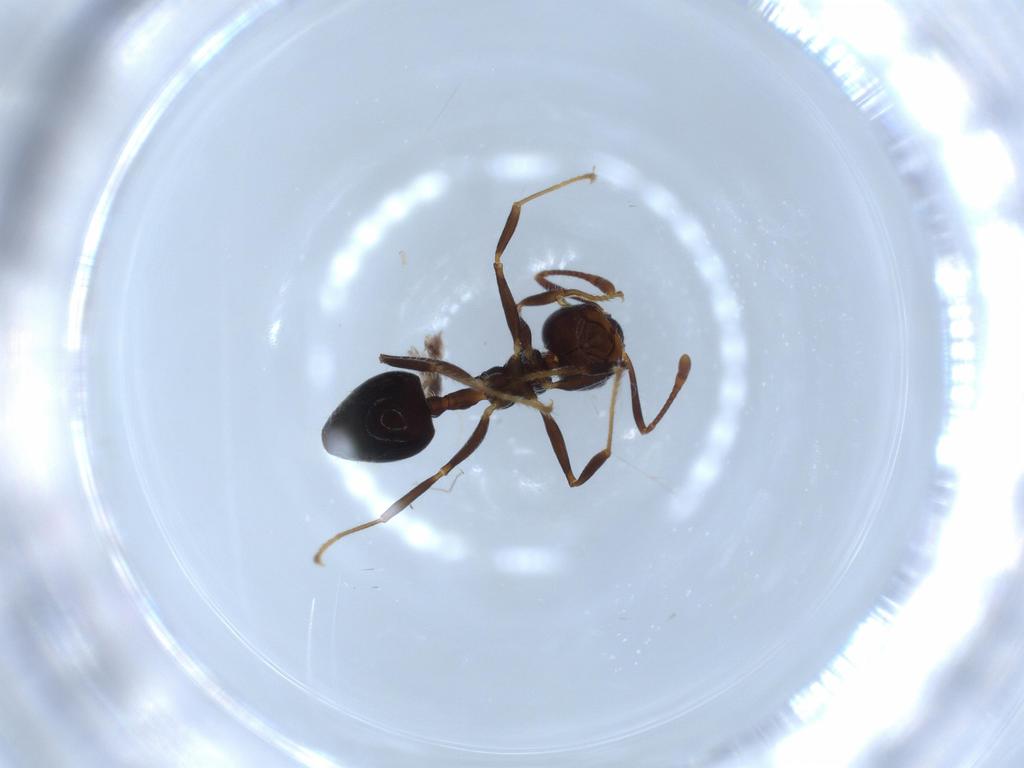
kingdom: Animalia
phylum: Arthropoda
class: Insecta
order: Hymenoptera
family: Formicidae
